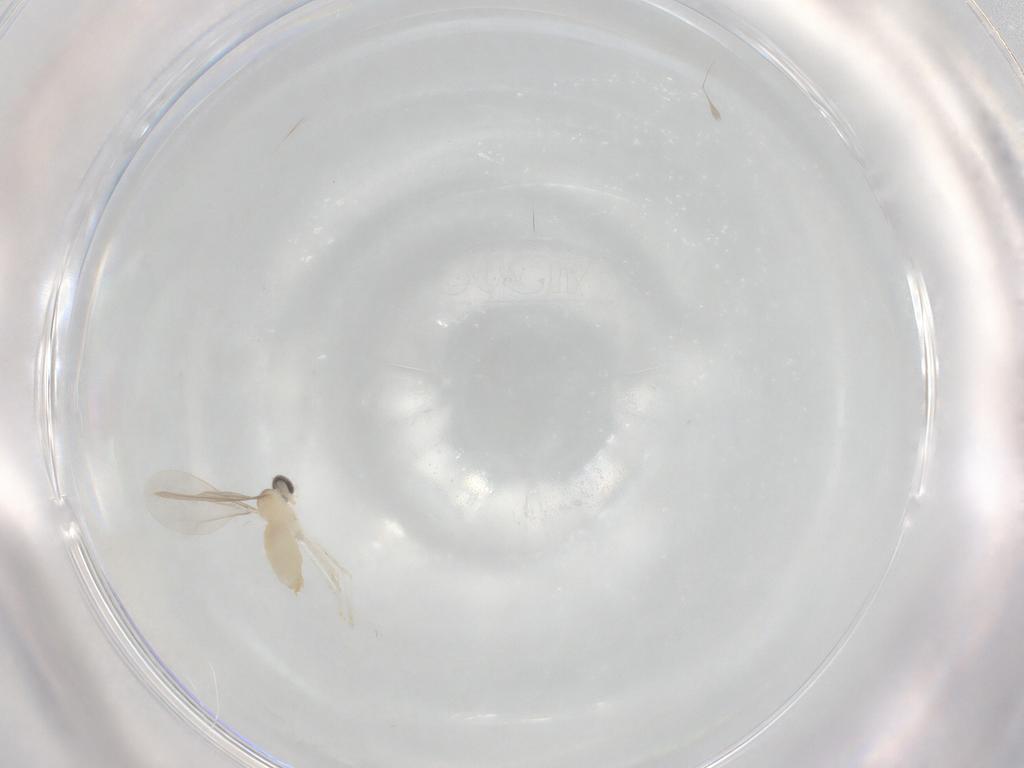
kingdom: Animalia
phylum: Arthropoda
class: Insecta
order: Diptera
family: Cecidomyiidae
